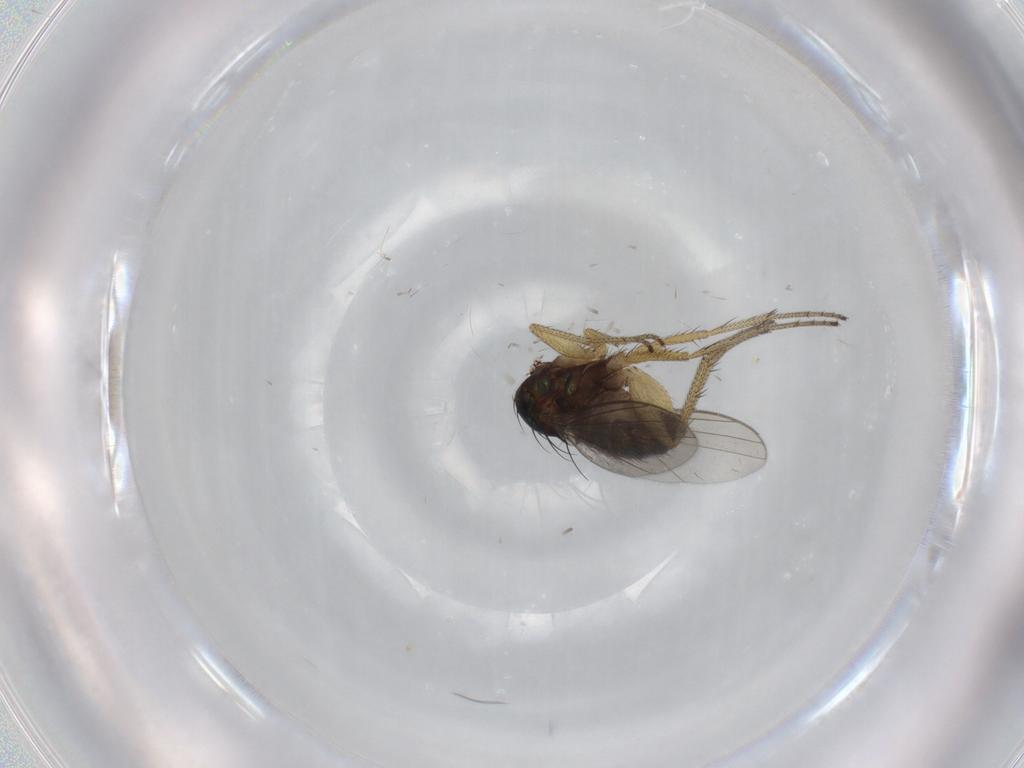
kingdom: Animalia
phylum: Arthropoda
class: Insecta
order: Diptera
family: Dolichopodidae
